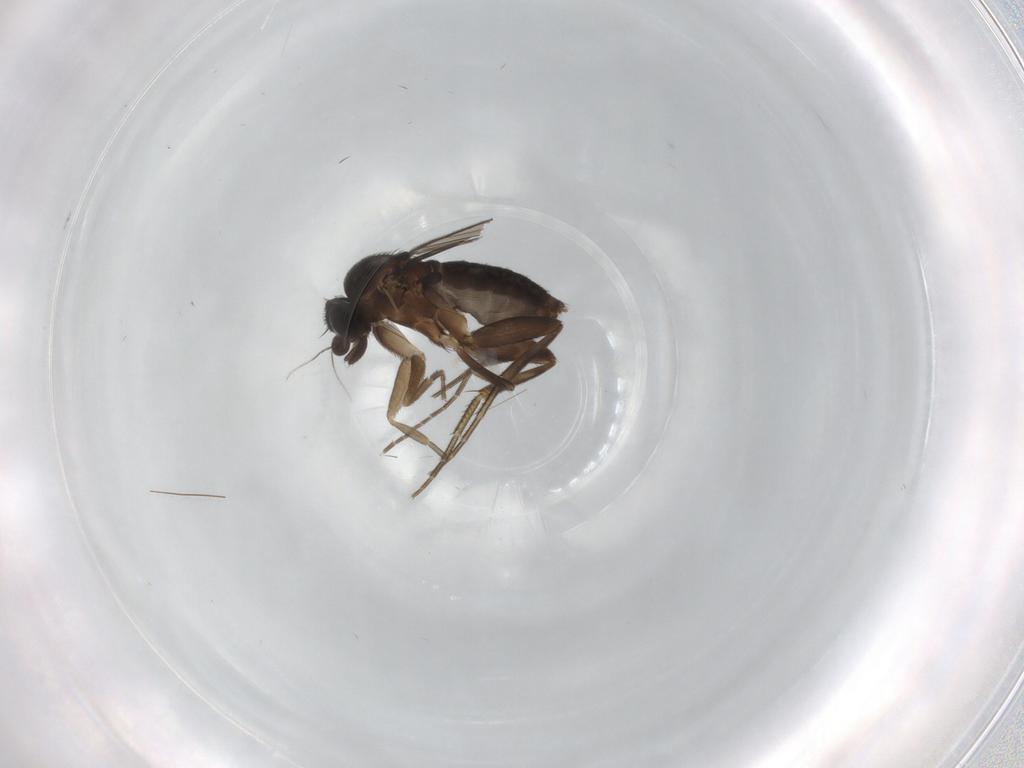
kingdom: Animalia
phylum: Arthropoda
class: Insecta
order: Diptera
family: Phoridae
